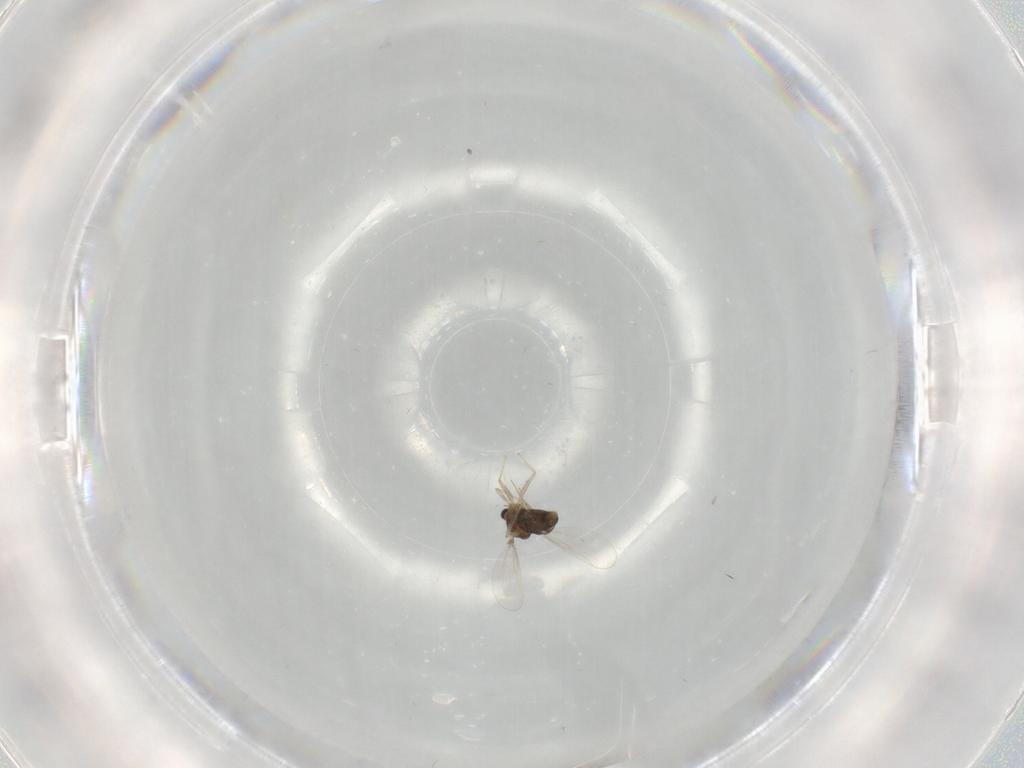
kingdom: Animalia
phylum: Arthropoda
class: Insecta
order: Diptera
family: Chironomidae
